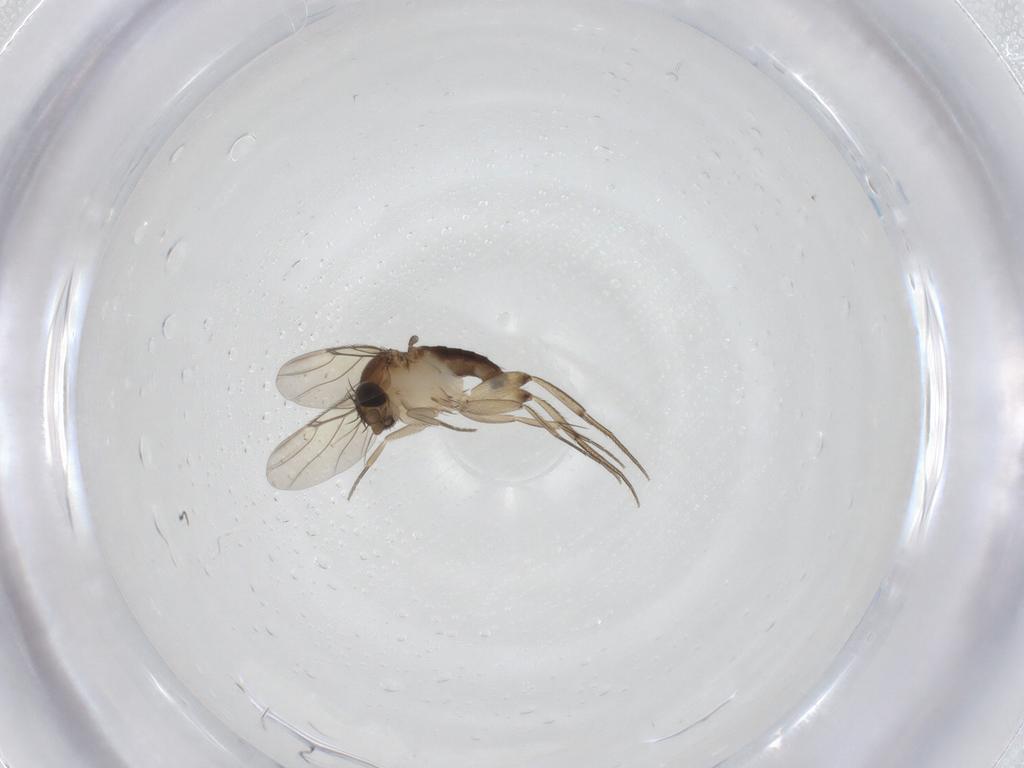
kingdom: Animalia
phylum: Arthropoda
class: Insecta
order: Diptera
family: Phoridae
